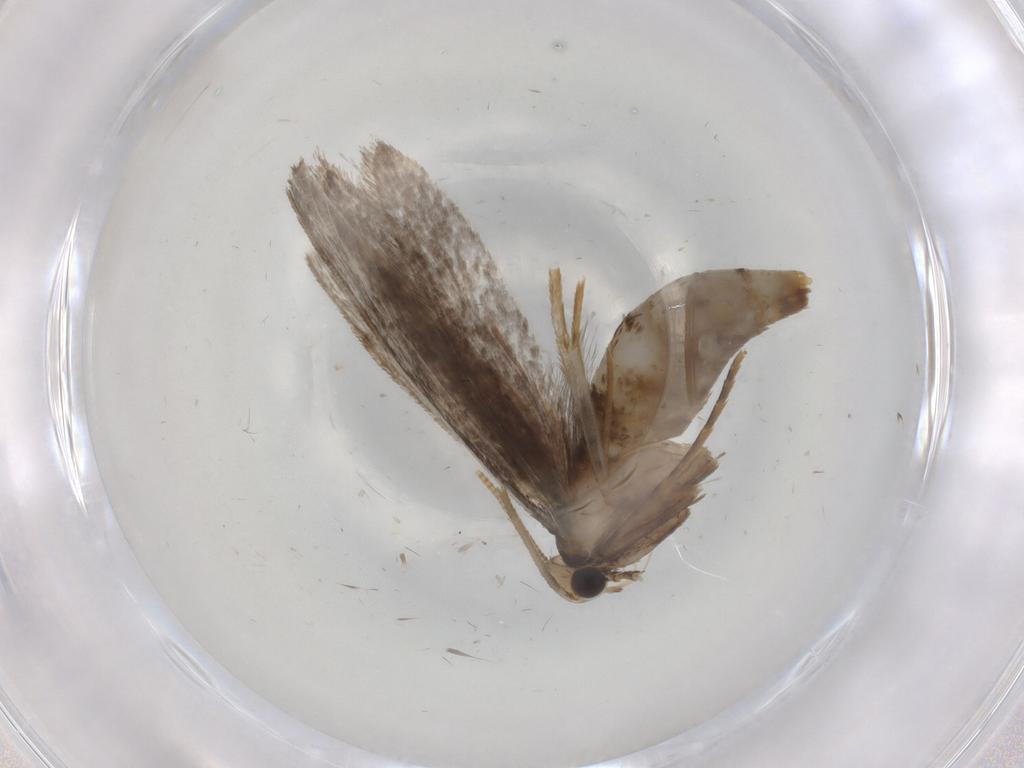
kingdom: Animalia
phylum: Arthropoda
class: Insecta
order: Lepidoptera
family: Tineidae
